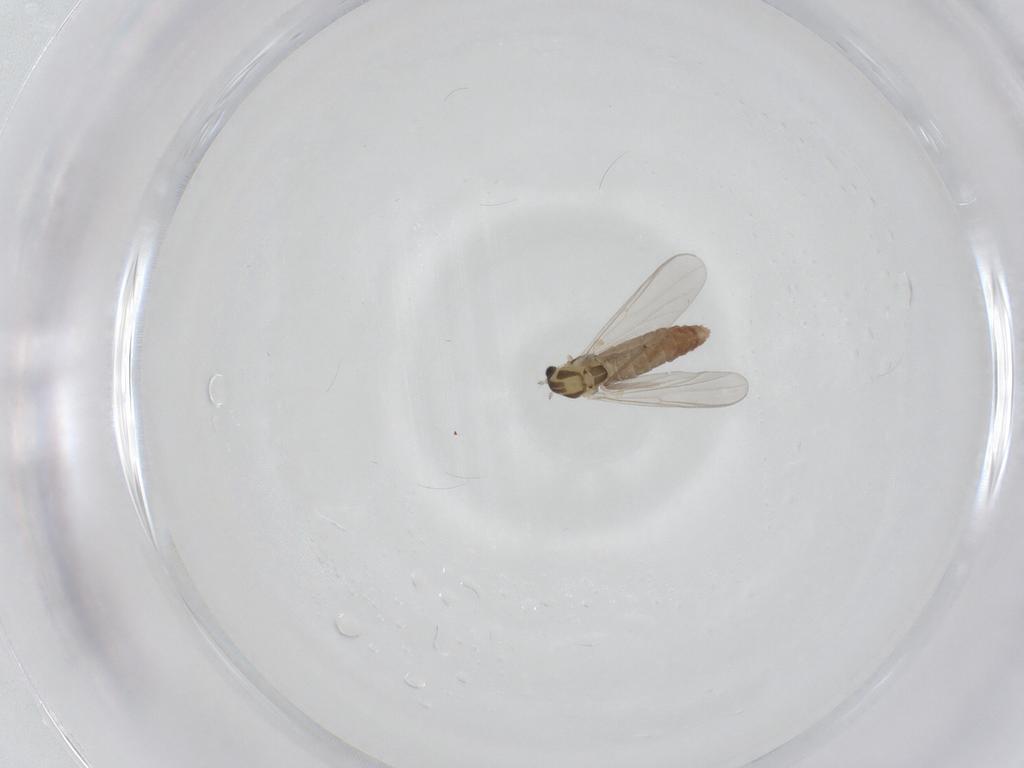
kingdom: Animalia
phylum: Arthropoda
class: Insecta
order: Diptera
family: Chironomidae
